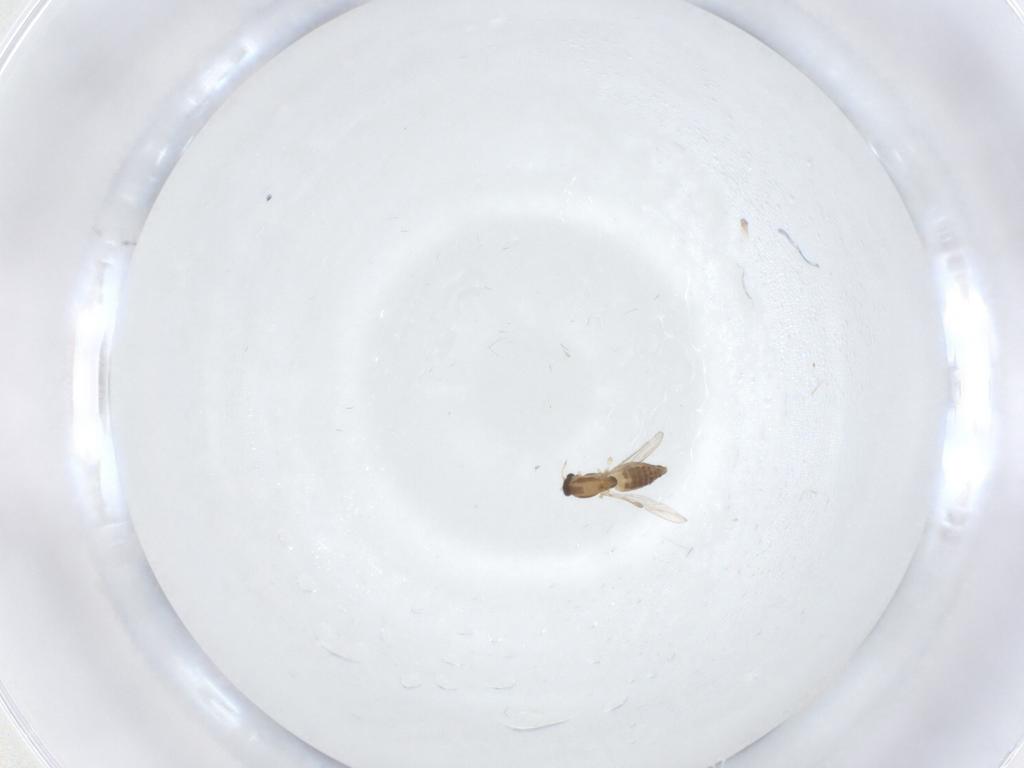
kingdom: Animalia
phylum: Arthropoda
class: Insecta
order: Diptera
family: Chironomidae
